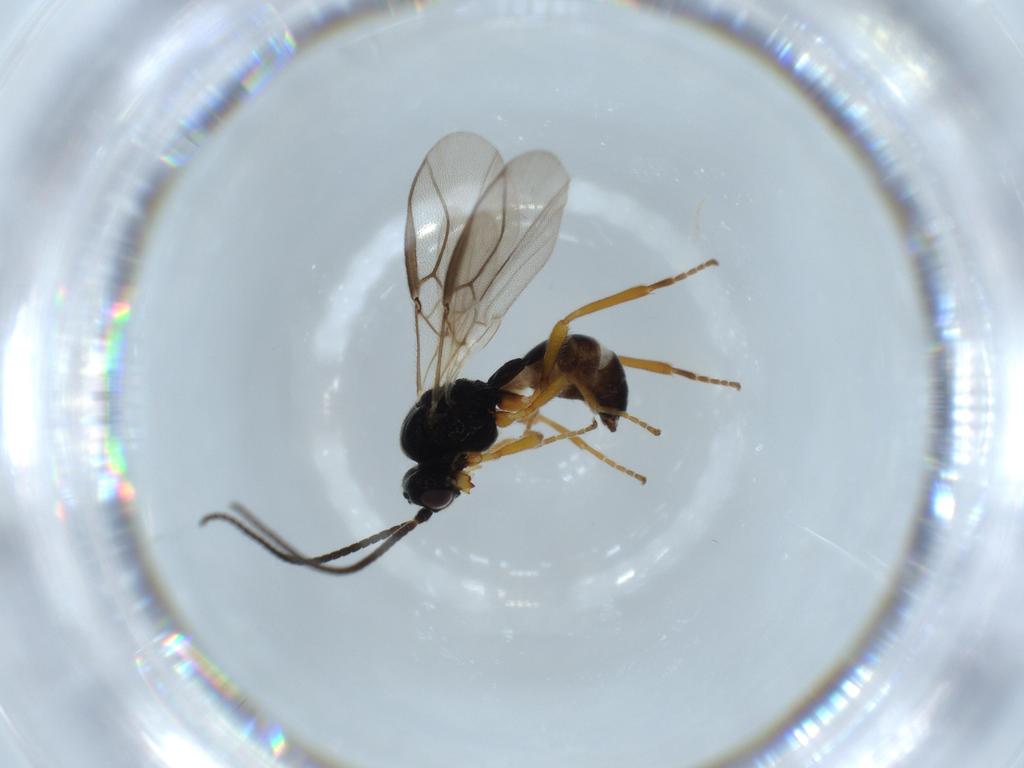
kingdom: Animalia
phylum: Arthropoda
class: Insecta
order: Hymenoptera
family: Braconidae
